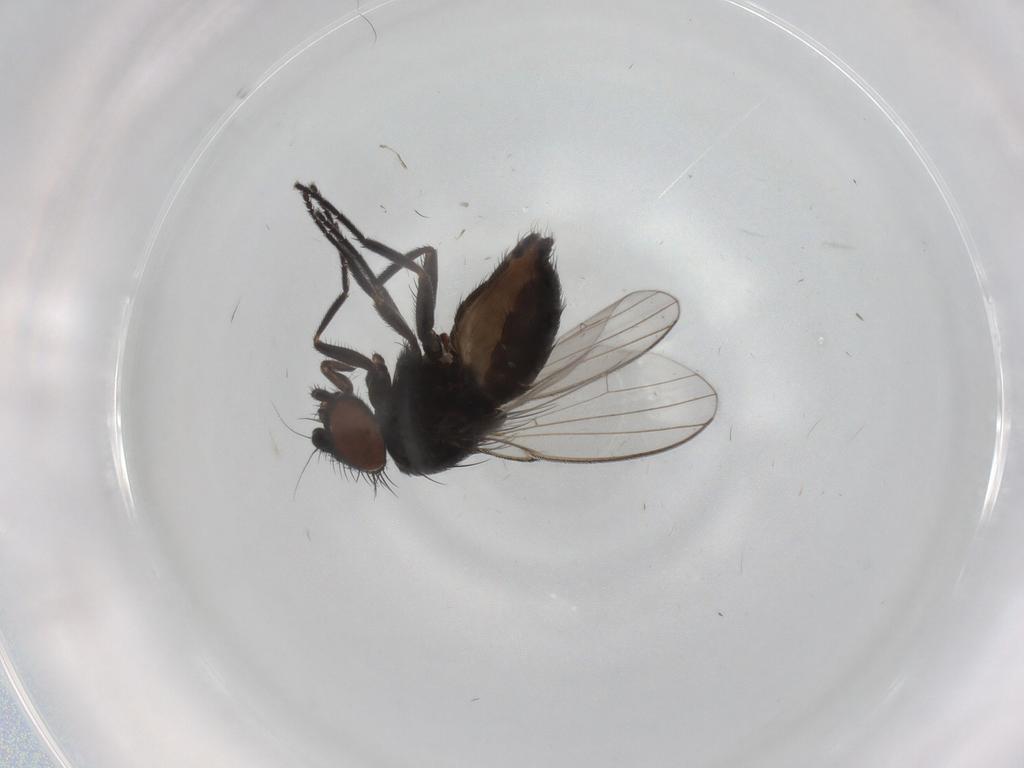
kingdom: Animalia
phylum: Arthropoda
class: Insecta
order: Diptera
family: Milichiidae
